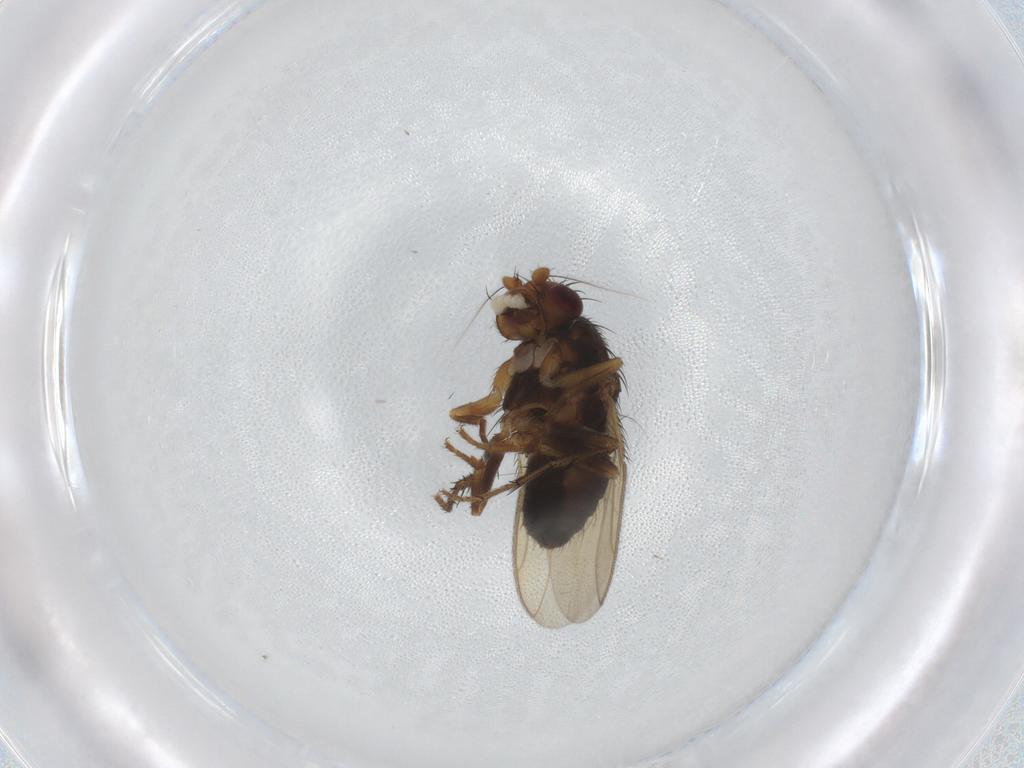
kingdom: Animalia
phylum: Arthropoda
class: Insecta
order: Diptera
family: Sphaeroceridae
